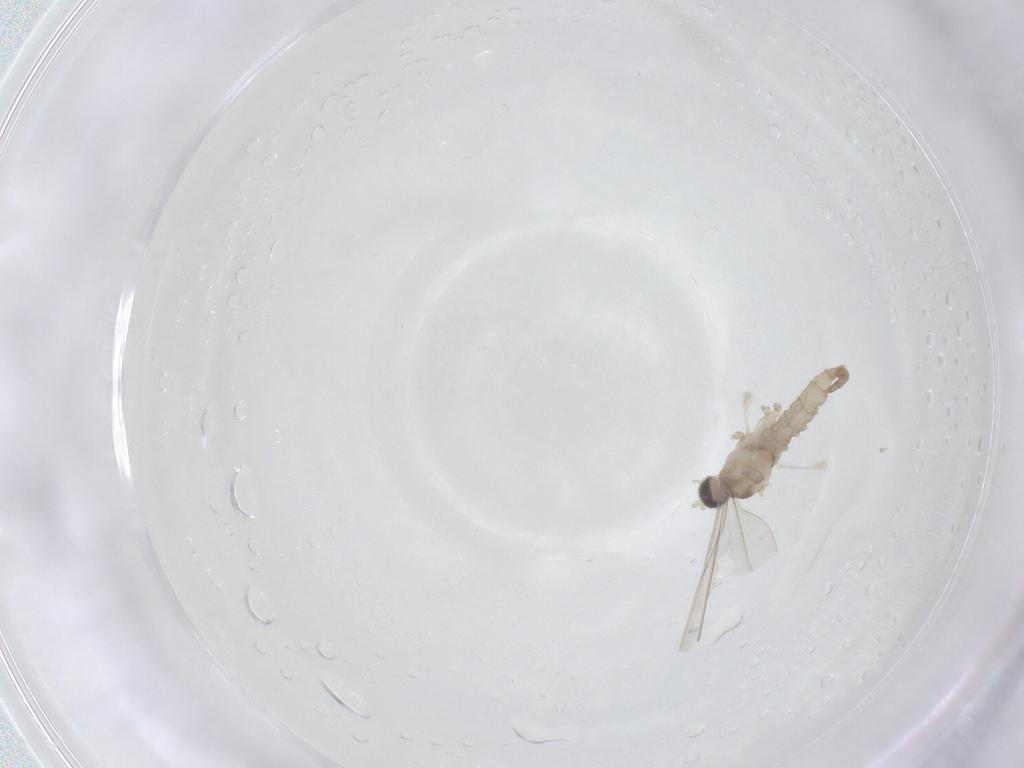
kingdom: Animalia
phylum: Arthropoda
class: Insecta
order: Diptera
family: Cecidomyiidae
